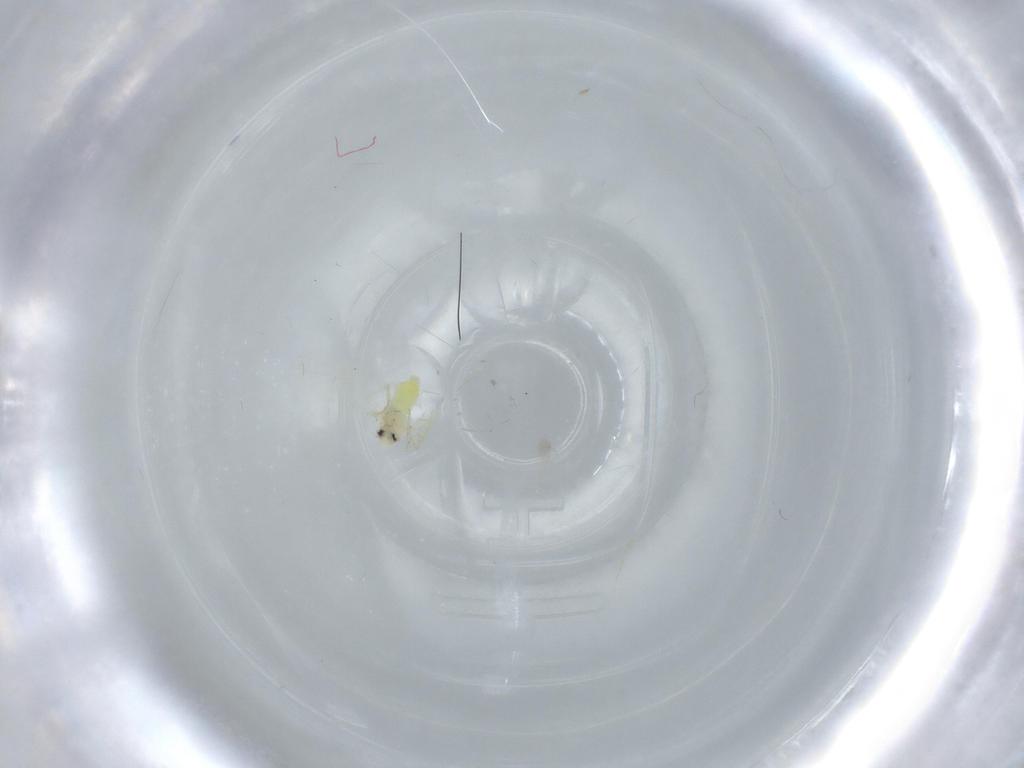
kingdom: Animalia
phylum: Arthropoda
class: Insecta
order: Hemiptera
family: Aleyrodidae
